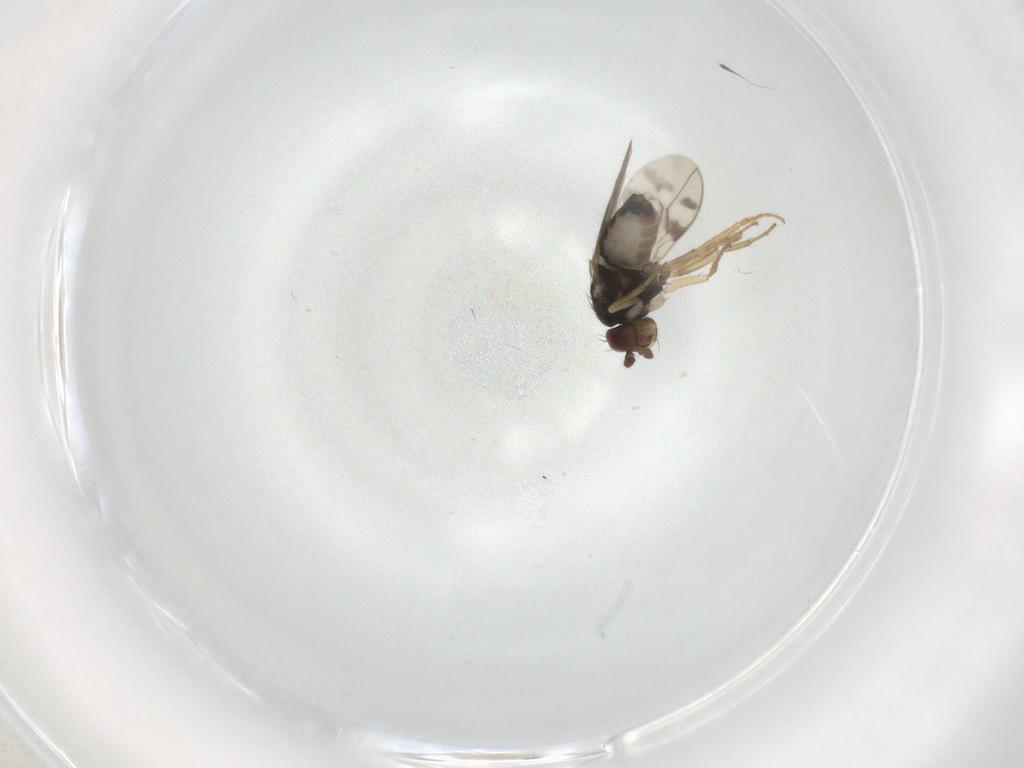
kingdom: Animalia
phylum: Arthropoda
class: Insecta
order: Diptera
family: Sphaeroceridae
